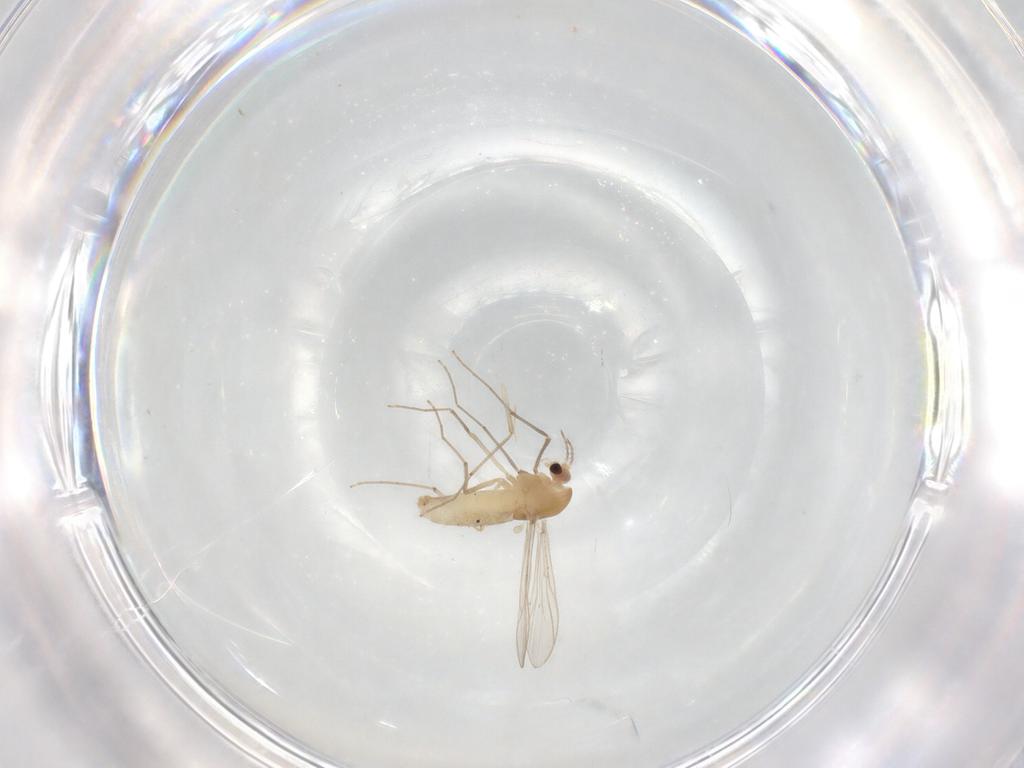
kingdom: Animalia
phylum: Arthropoda
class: Insecta
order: Diptera
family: Chironomidae
